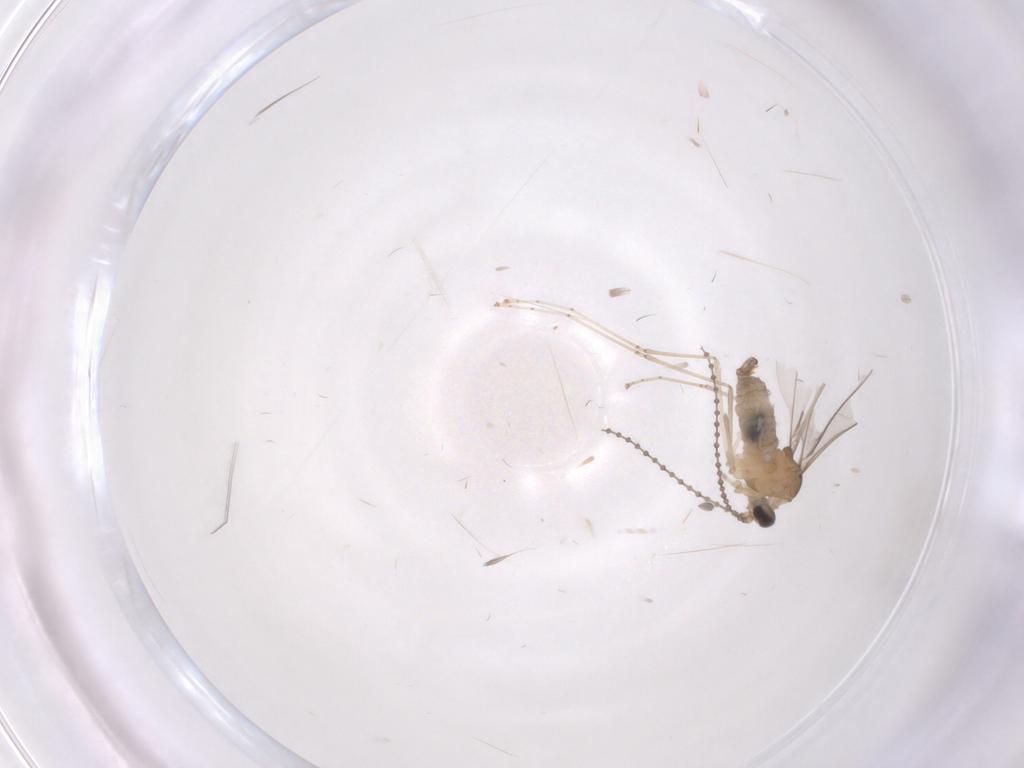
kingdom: Animalia
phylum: Arthropoda
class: Insecta
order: Diptera
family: Cecidomyiidae
